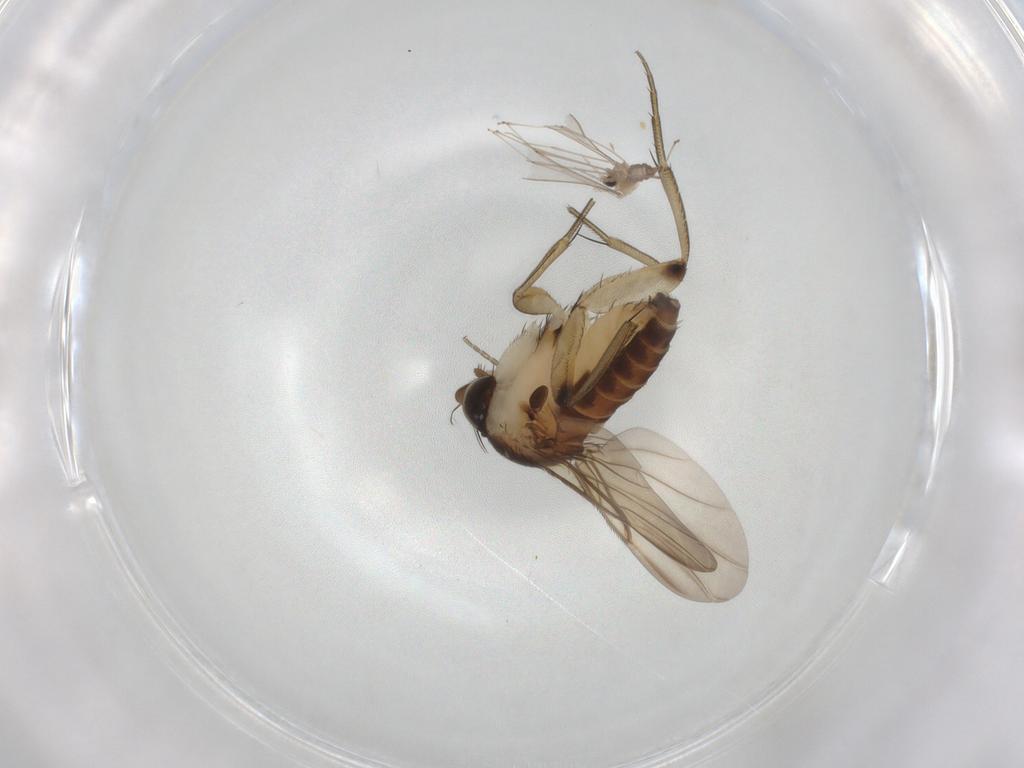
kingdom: Animalia
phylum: Arthropoda
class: Insecta
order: Diptera
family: Phoridae
